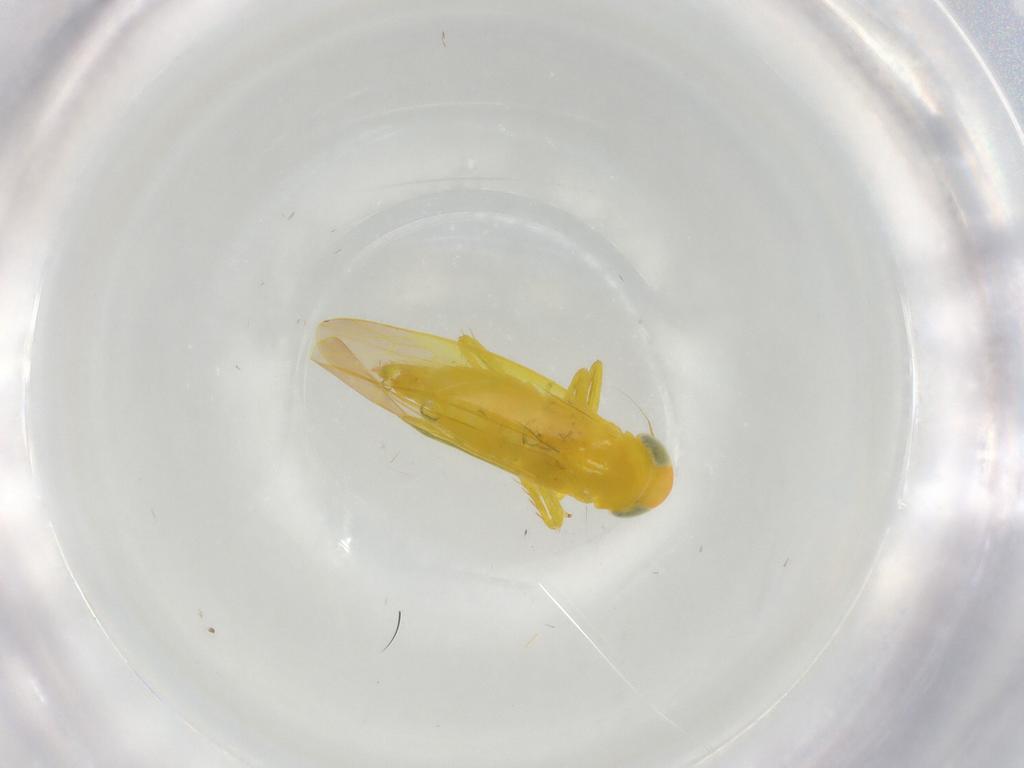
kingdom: Animalia
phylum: Arthropoda
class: Insecta
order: Hemiptera
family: Cicadellidae
